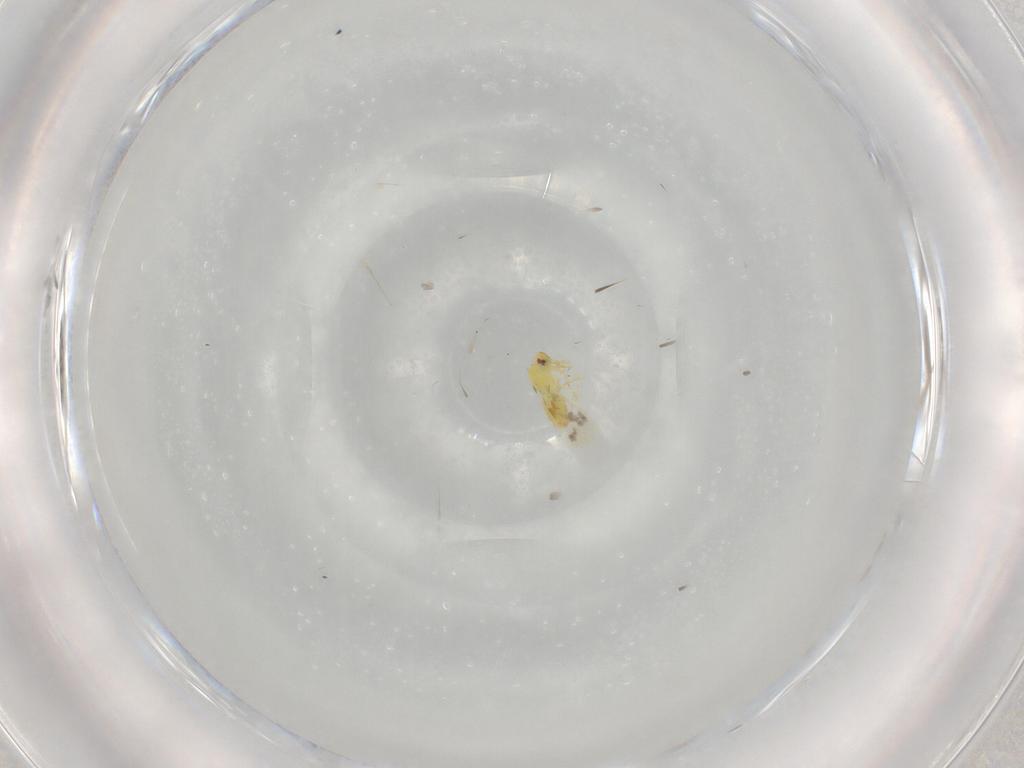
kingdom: Animalia
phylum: Arthropoda
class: Insecta
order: Hemiptera
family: Aleyrodidae
